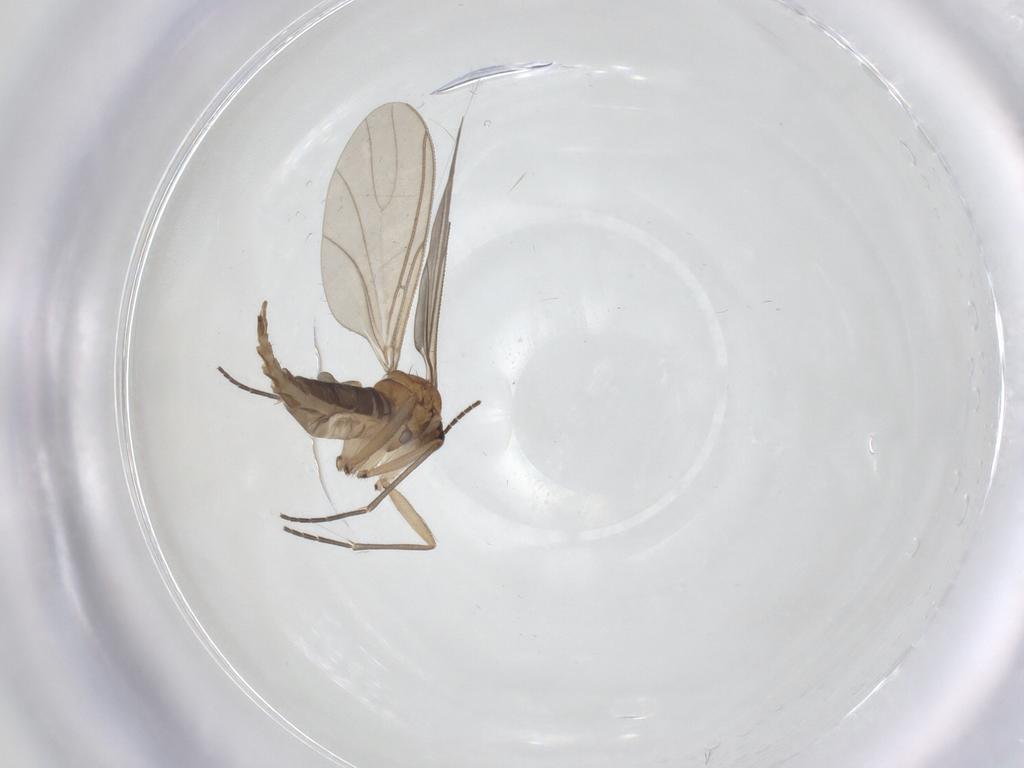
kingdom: Animalia
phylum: Arthropoda
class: Insecta
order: Diptera
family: Sciaridae
